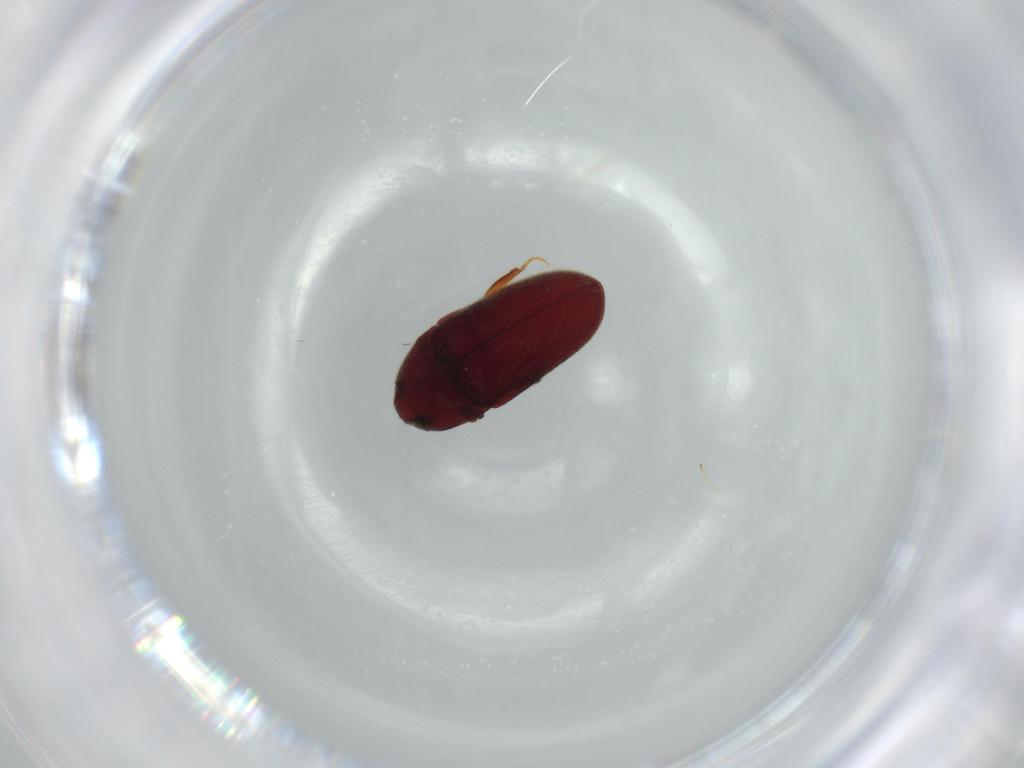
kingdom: Animalia
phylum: Arthropoda
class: Insecta
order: Coleoptera
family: Throscidae
